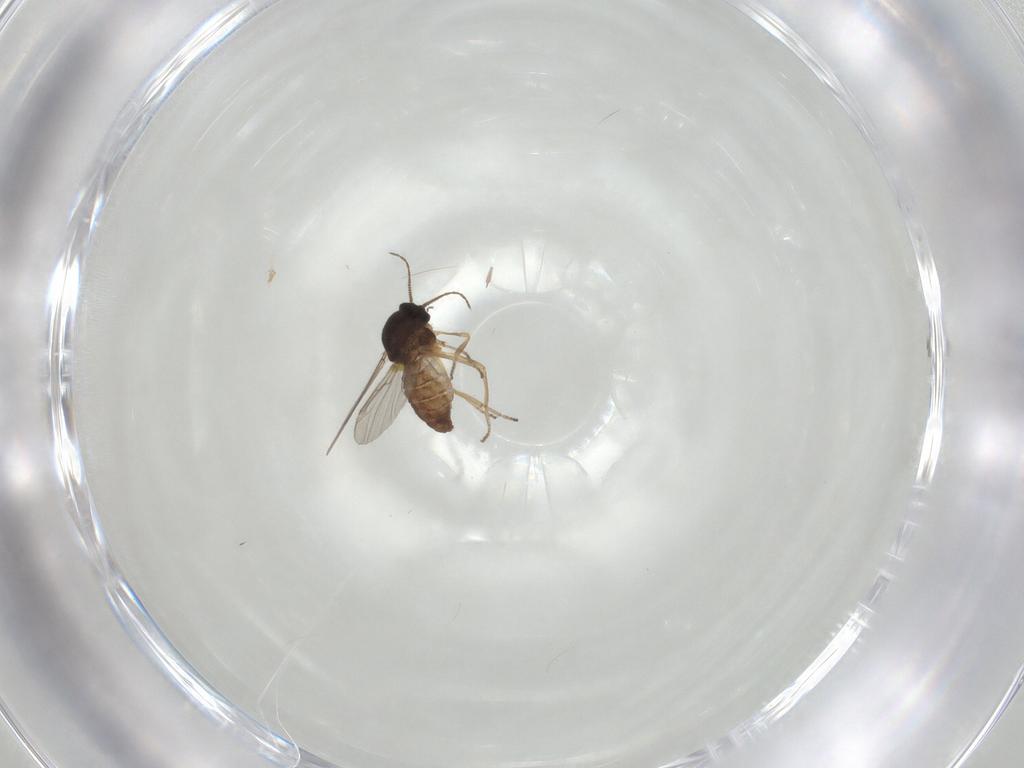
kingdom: Animalia
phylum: Arthropoda
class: Insecta
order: Diptera
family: Ceratopogonidae
